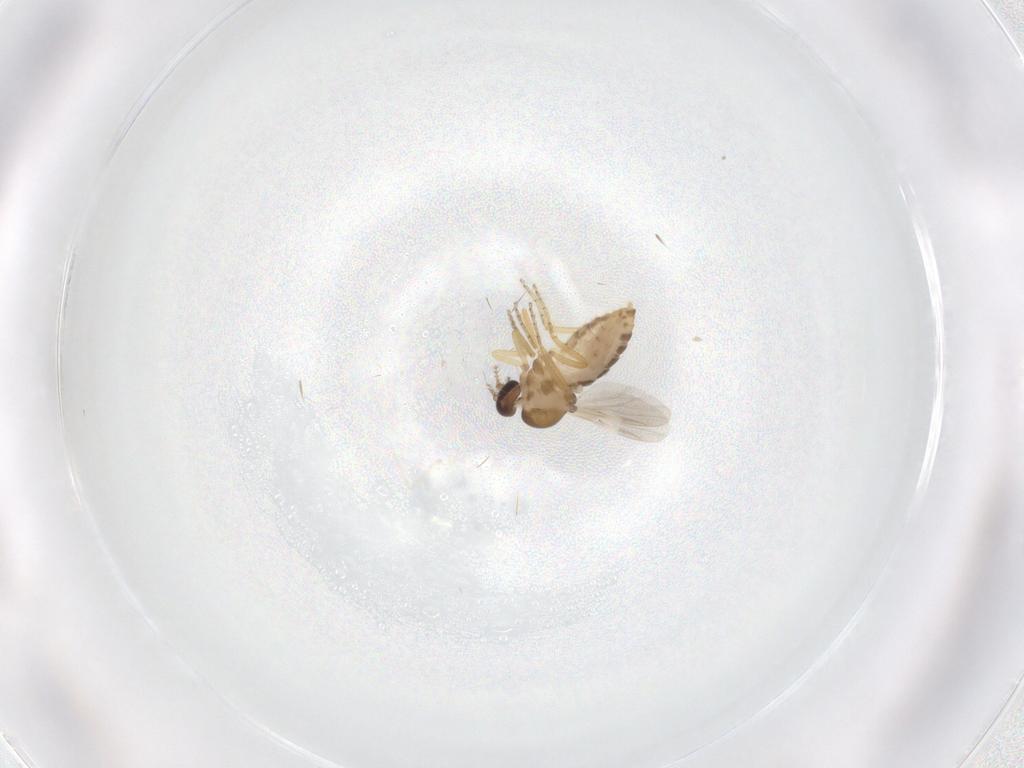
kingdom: Animalia
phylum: Arthropoda
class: Insecta
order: Diptera
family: Ceratopogonidae
